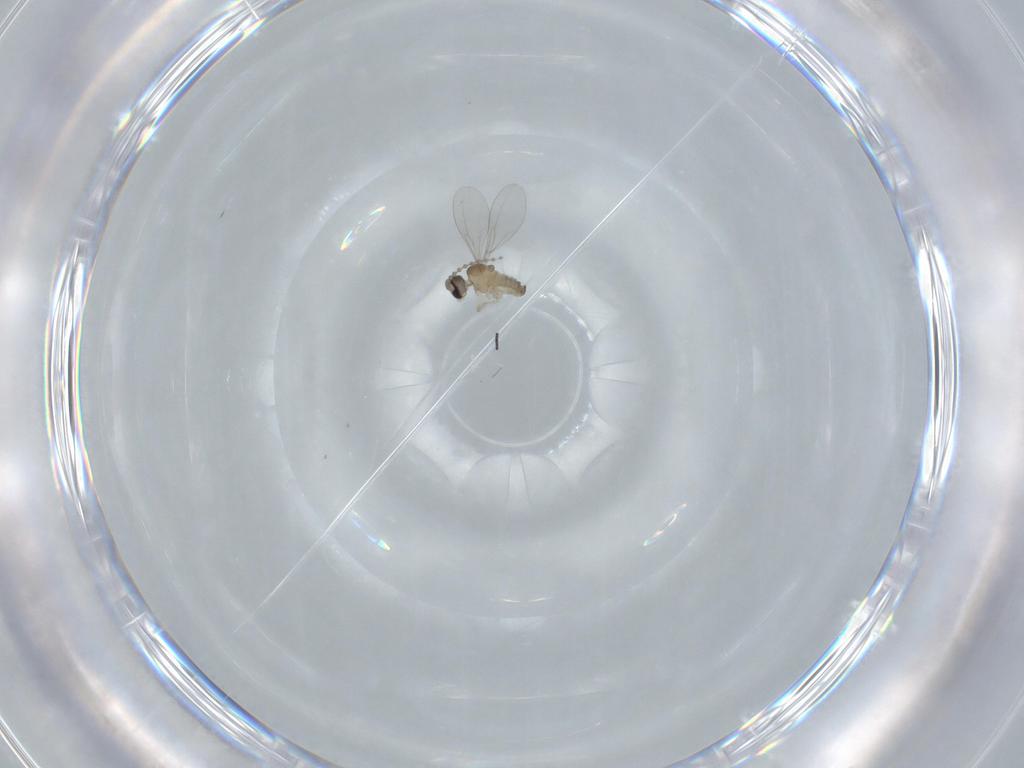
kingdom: Animalia
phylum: Arthropoda
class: Insecta
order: Diptera
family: Cecidomyiidae
